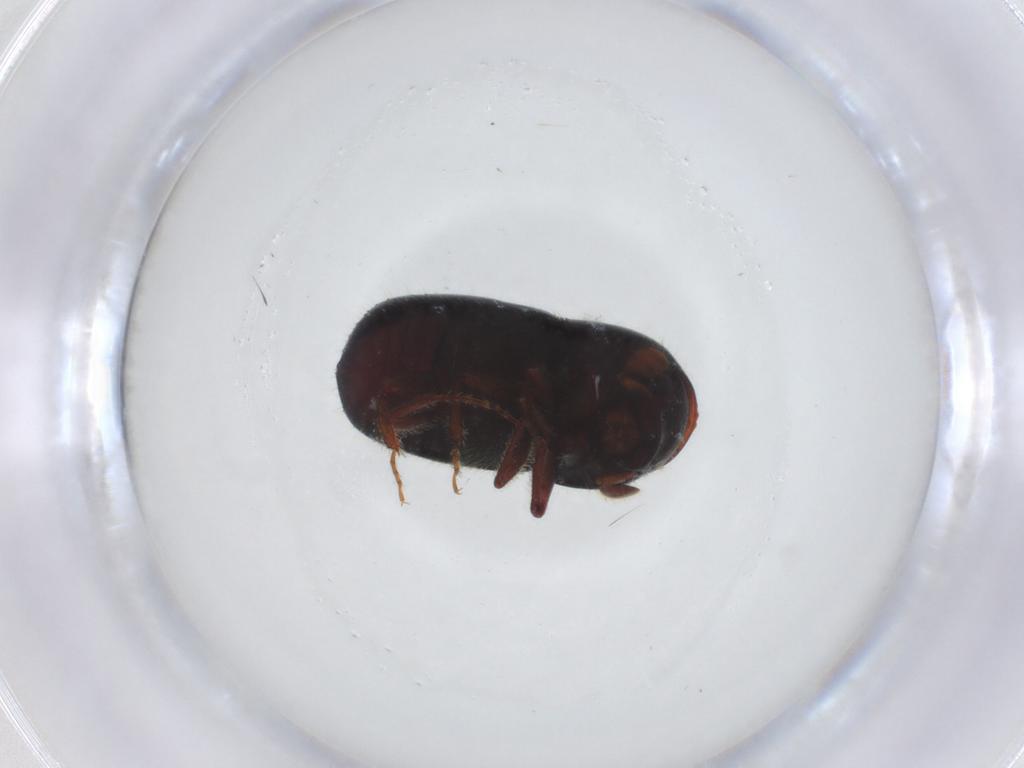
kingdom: Animalia
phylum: Arthropoda
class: Insecta
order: Coleoptera
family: Curculionidae
